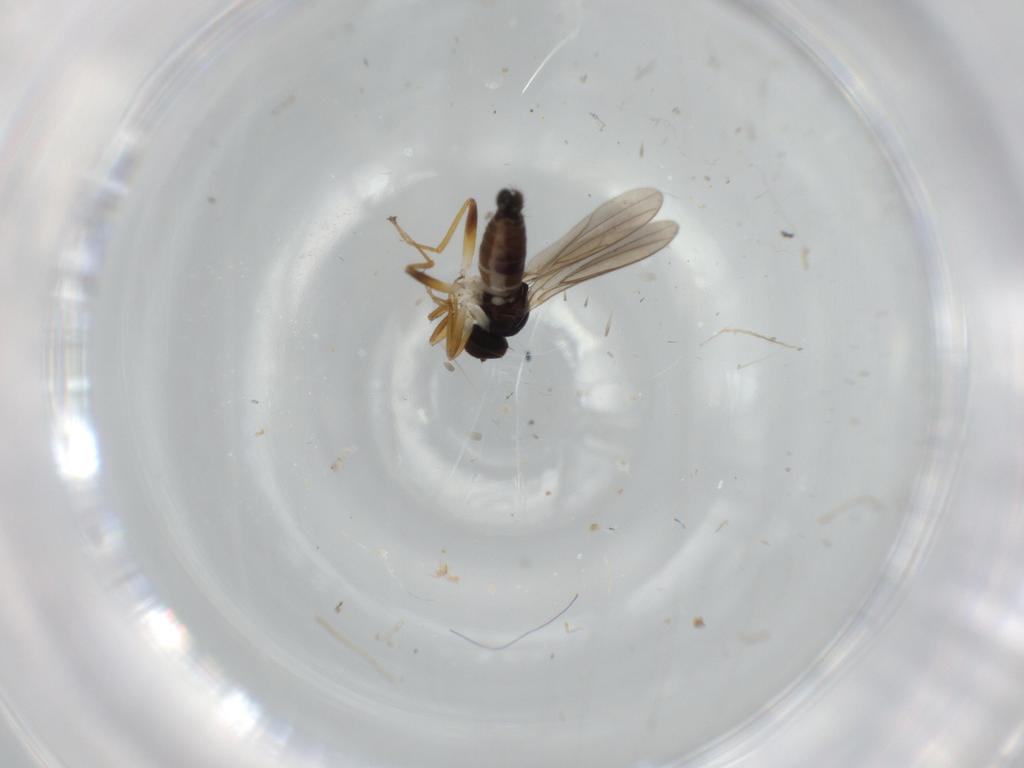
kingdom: Animalia
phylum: Arthropoda
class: Insecta
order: Diptera
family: Hybotidae
